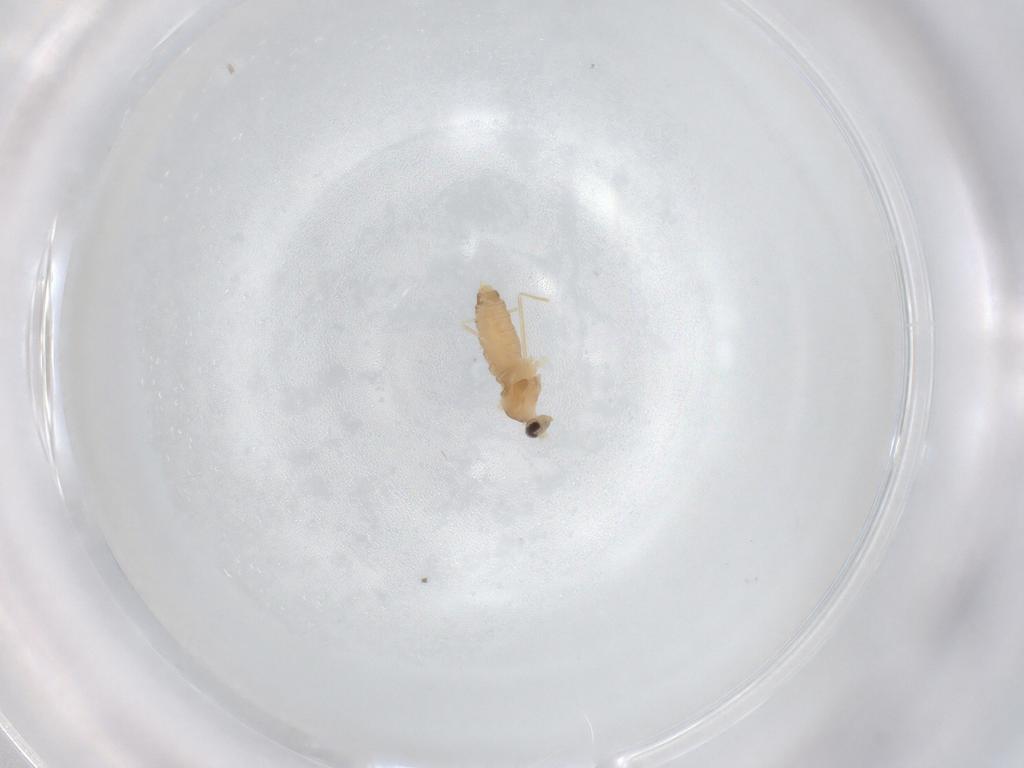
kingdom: Animalia
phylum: Arthropoda
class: Insecta
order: Diptera
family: Cecidomyiidae
